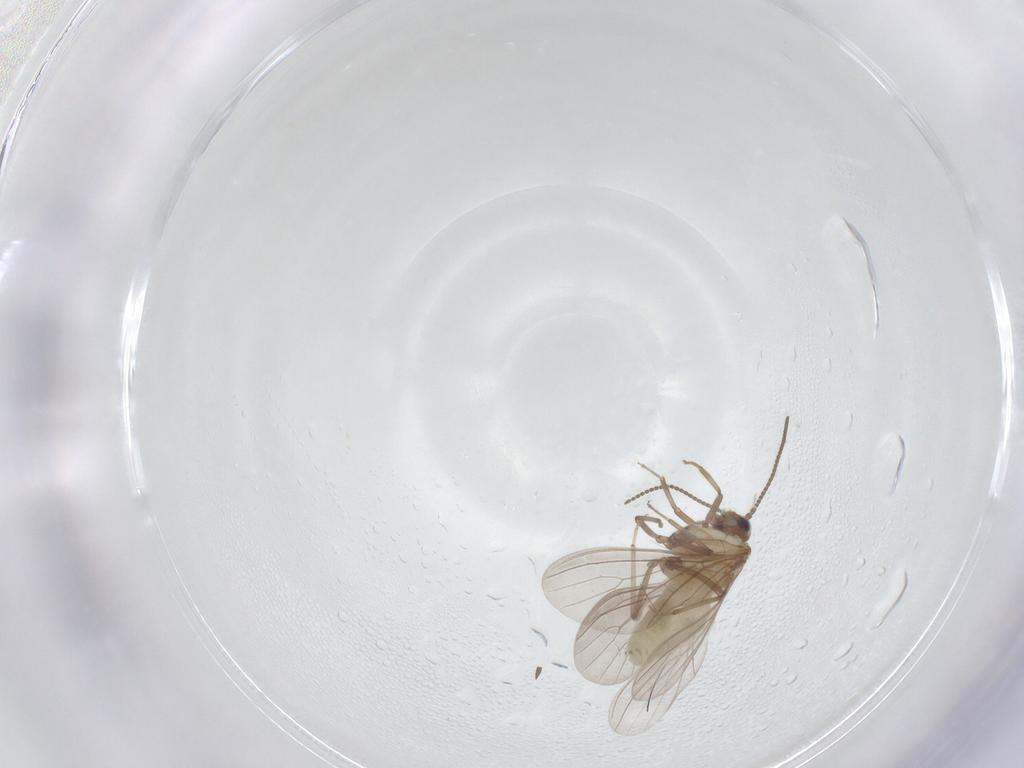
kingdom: Animalia
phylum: Arthropoda
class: Insecta
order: Neuroptera
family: Coniopterygidae
